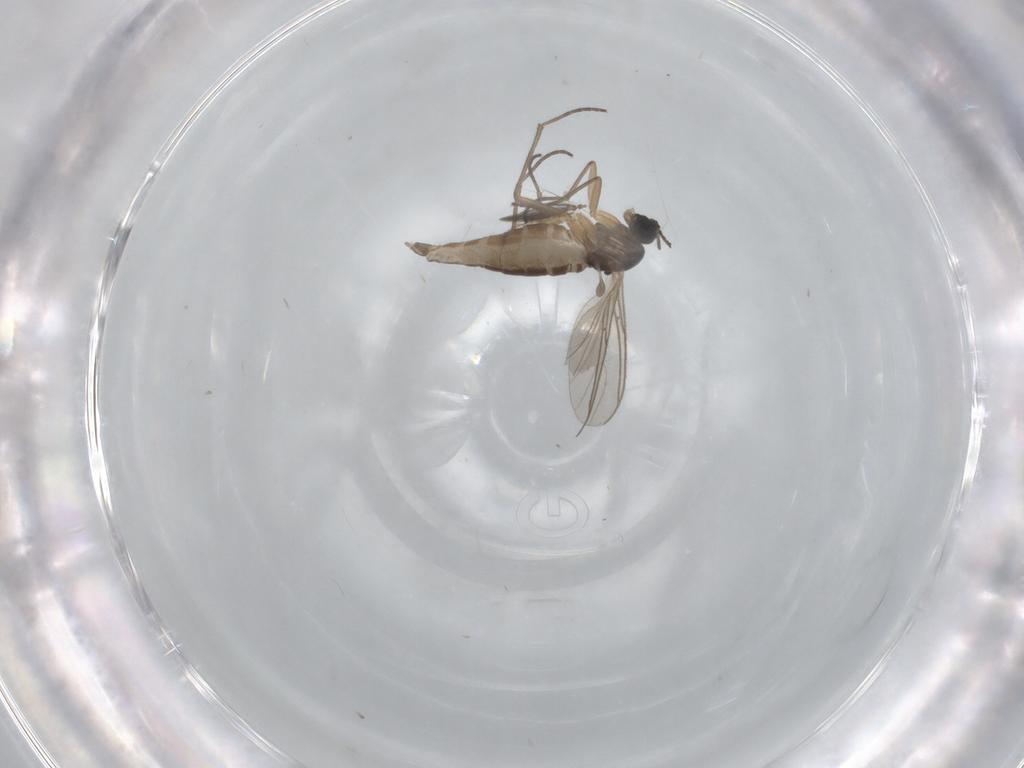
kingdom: Animalia
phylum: Arthropoda
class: Insecta
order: Diptera
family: Ceratopogonidae
